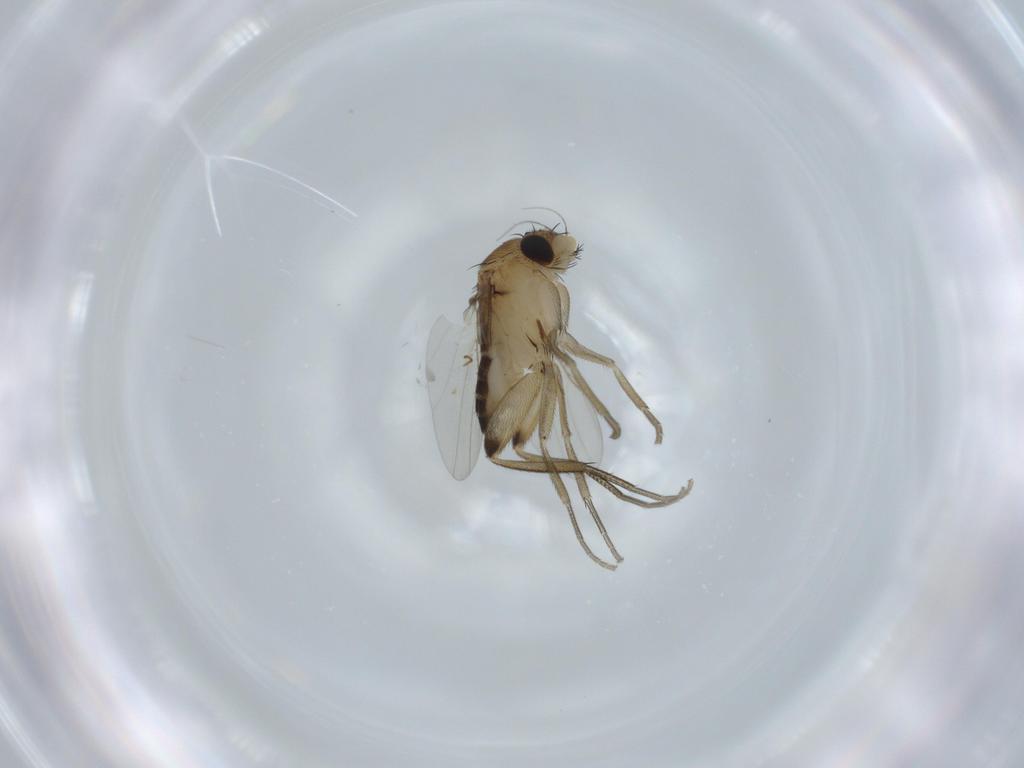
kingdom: Animalia
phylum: Arthropoda
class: Insecta
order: Diptera
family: Phoridae
